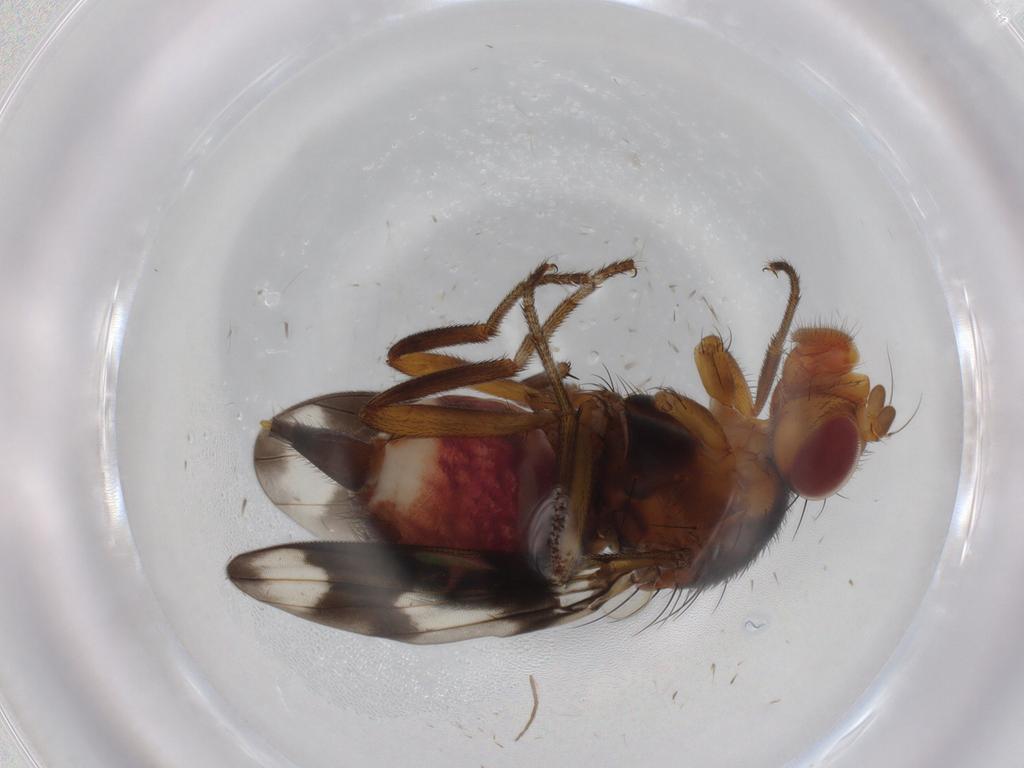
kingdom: Animalia
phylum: Arthropoda
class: Insecta
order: Diptera
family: Richardiidae
